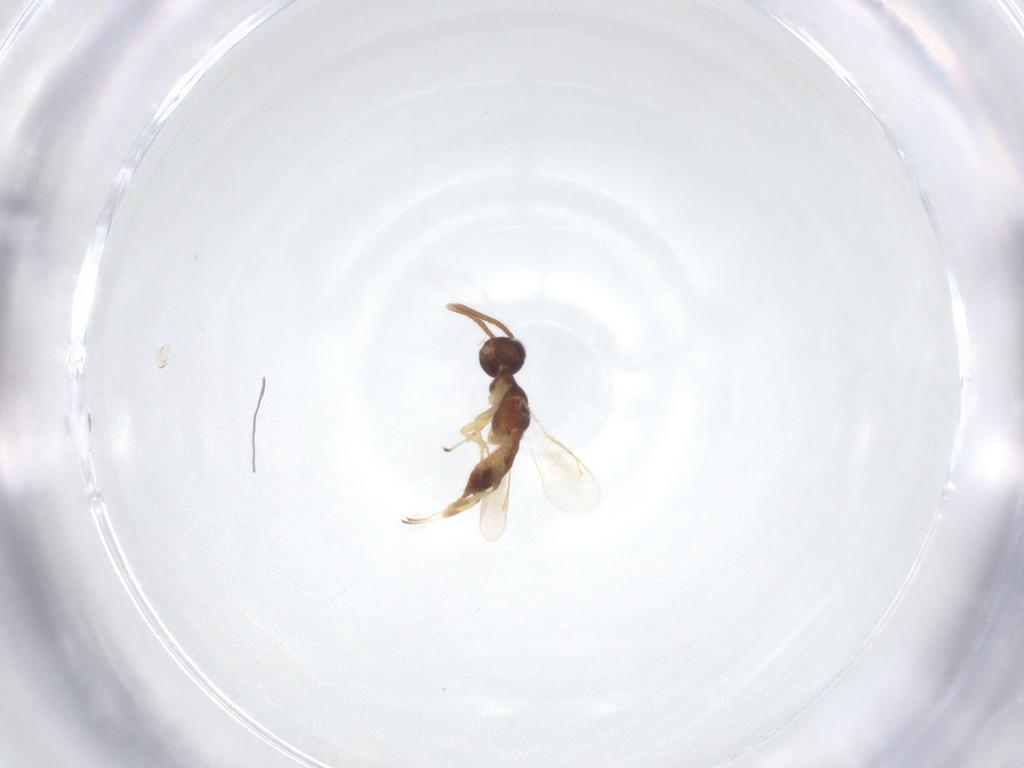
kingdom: Animalia
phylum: Arthropoda
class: Insecta
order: Hymenoptera
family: Eupelmidae
